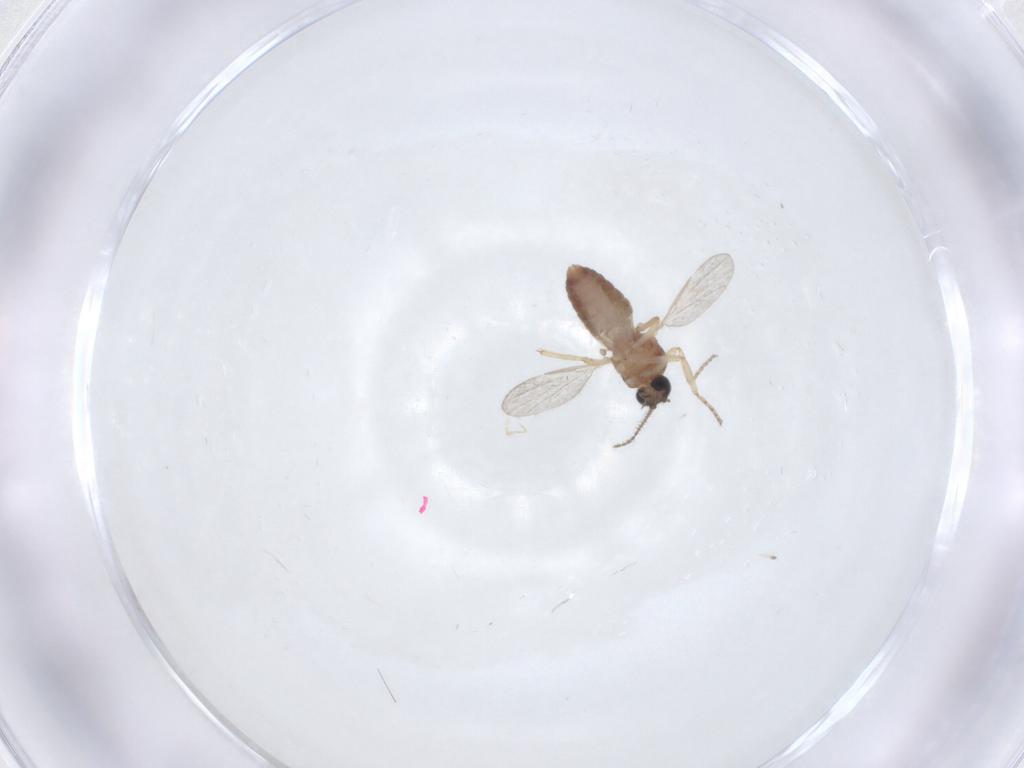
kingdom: Animalia
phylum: Arthropoda
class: Insecta
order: Diptera
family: Ceratopogonidae
